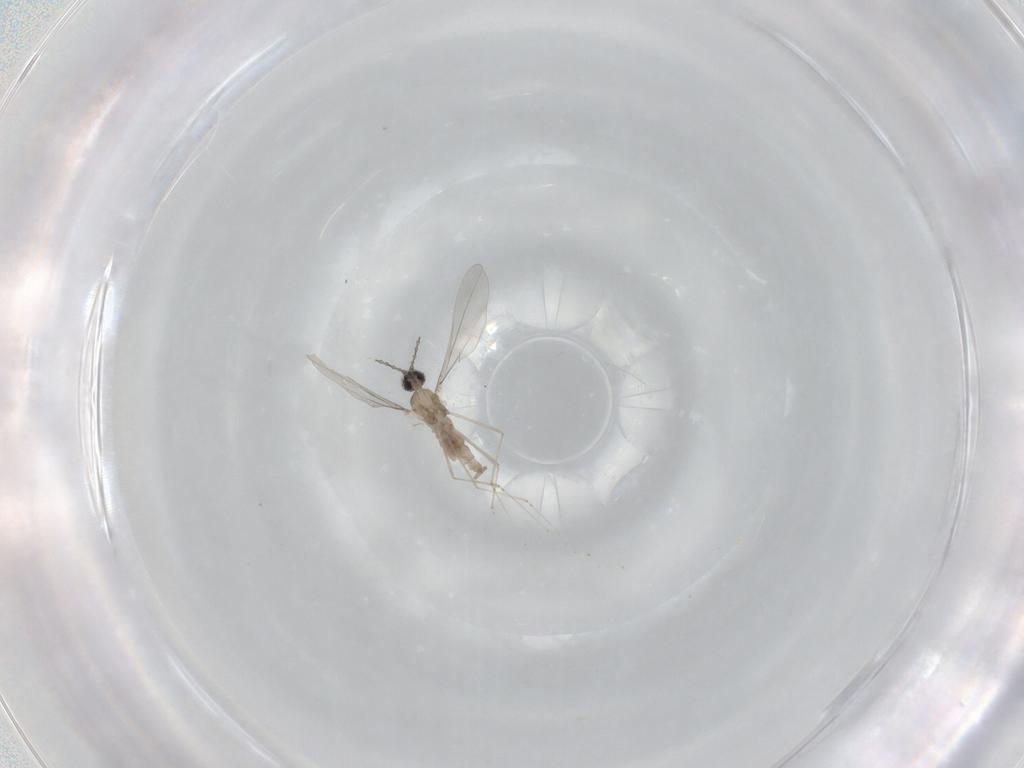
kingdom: Animalia
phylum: Arthropoda
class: Insecta
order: Diptera
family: Cecidomyiidae
